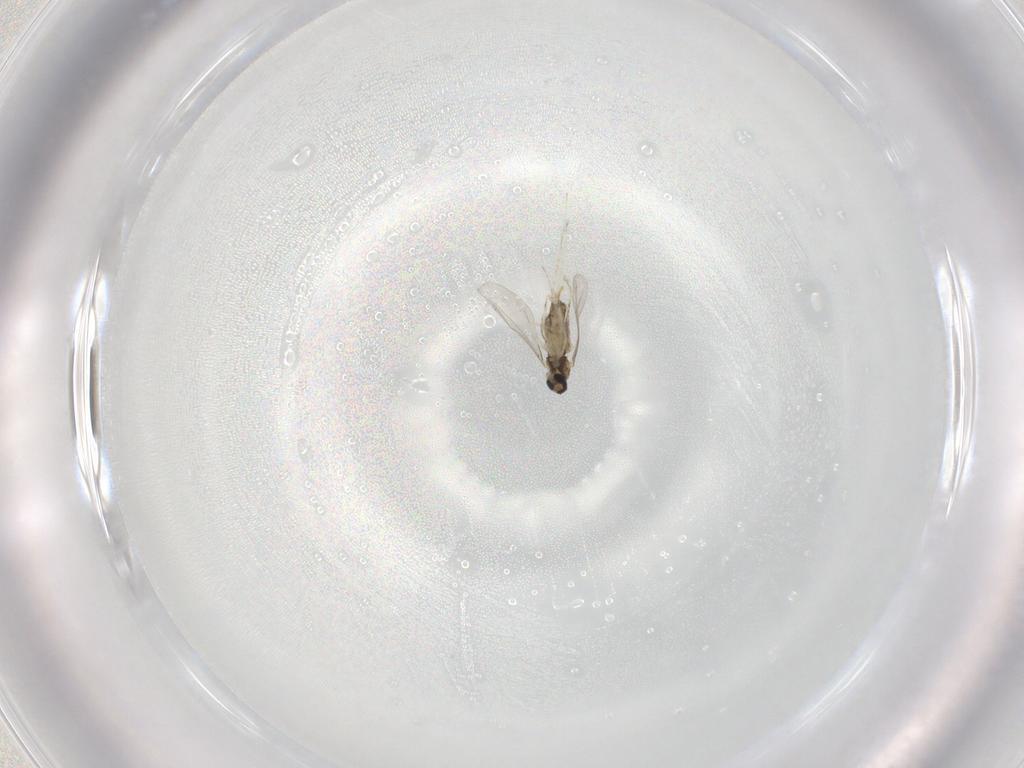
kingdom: Animalia
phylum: Arthropoda
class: Insecta
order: Diptera
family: Cecidomyiidae
